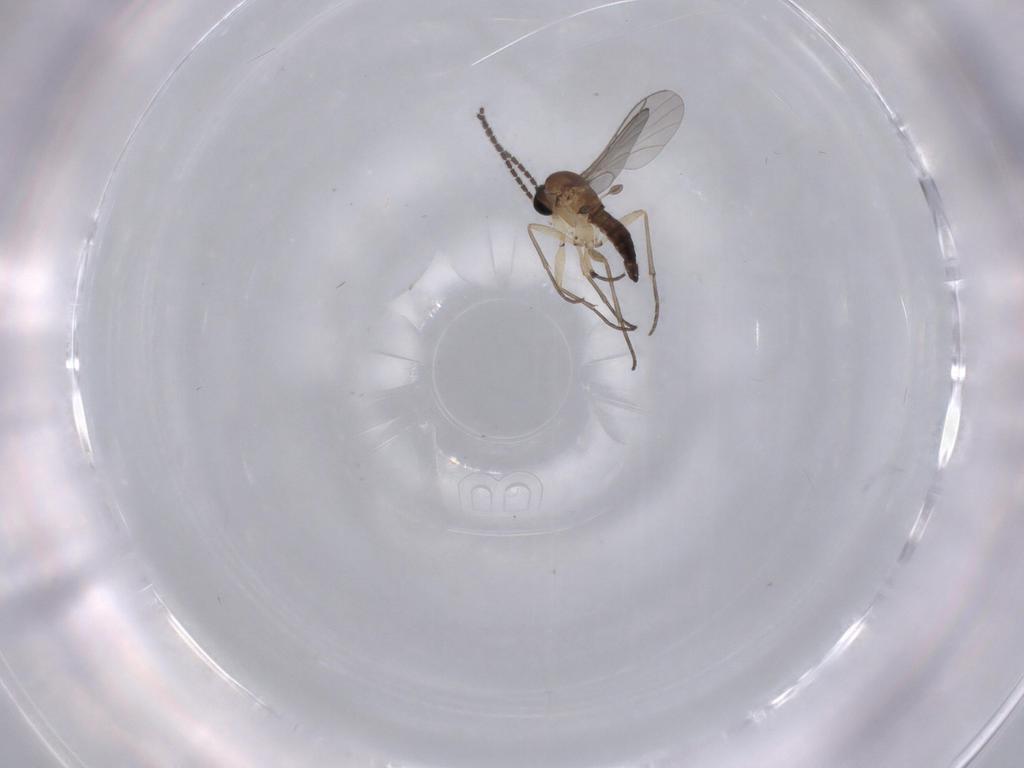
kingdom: Animalia
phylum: Arthropoda
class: Insecta
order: Diptera
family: Sciaridae
